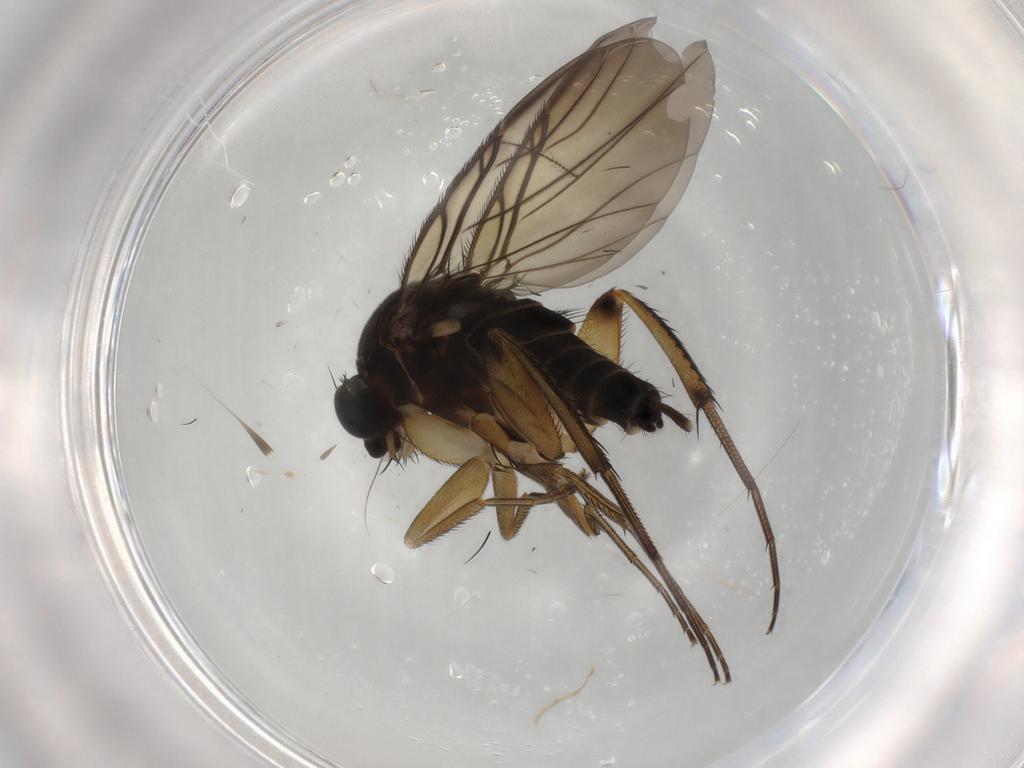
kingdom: Animalia
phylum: Arthropoda
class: Insecta
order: Diptera
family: Phoridae
